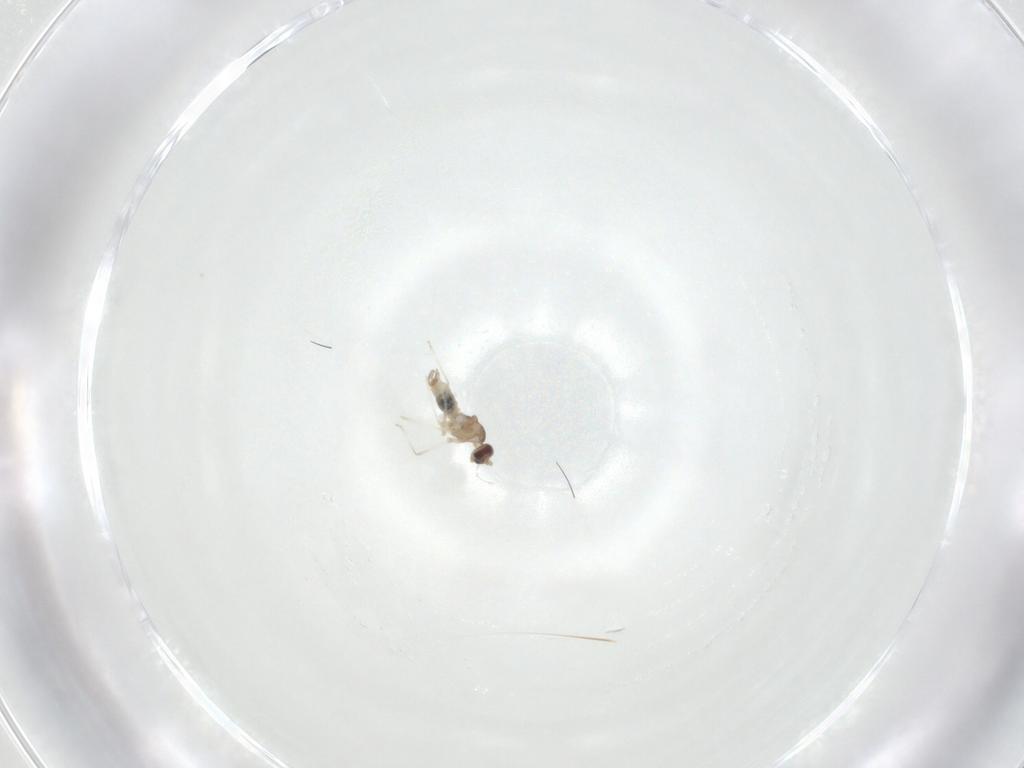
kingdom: Animalia
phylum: Arthropoda
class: Insecta
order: Diptera
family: Cecidomyiidae
